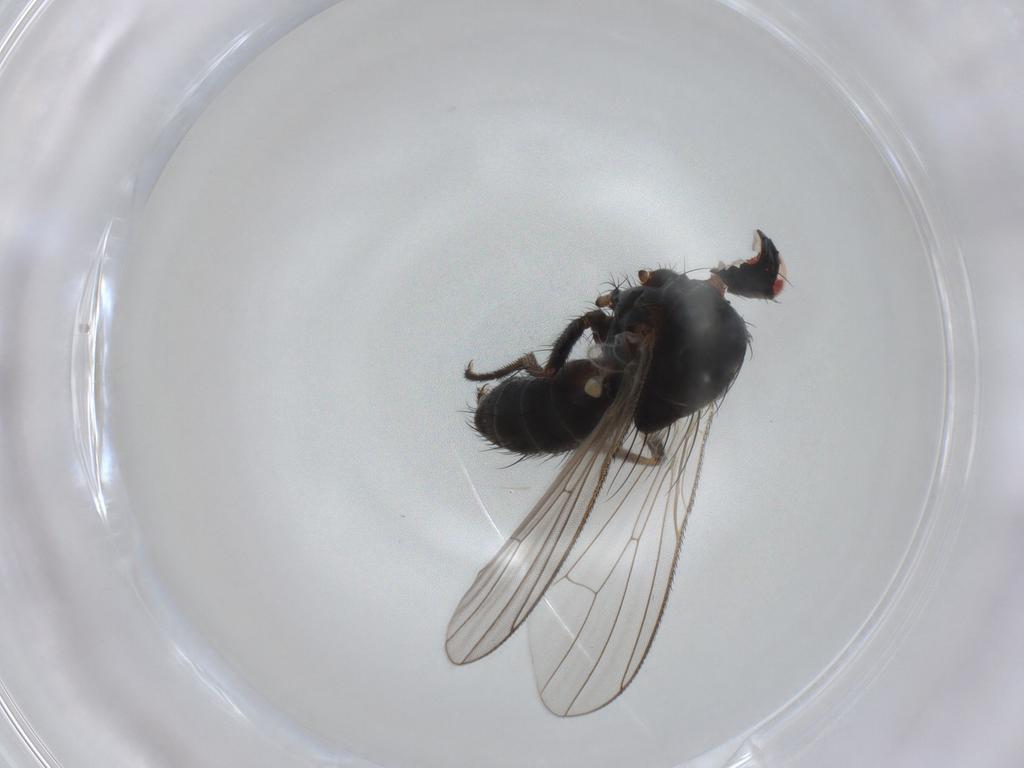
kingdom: Animalia
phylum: Arthropoda
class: Insecta
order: Diptera
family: Muscidae
